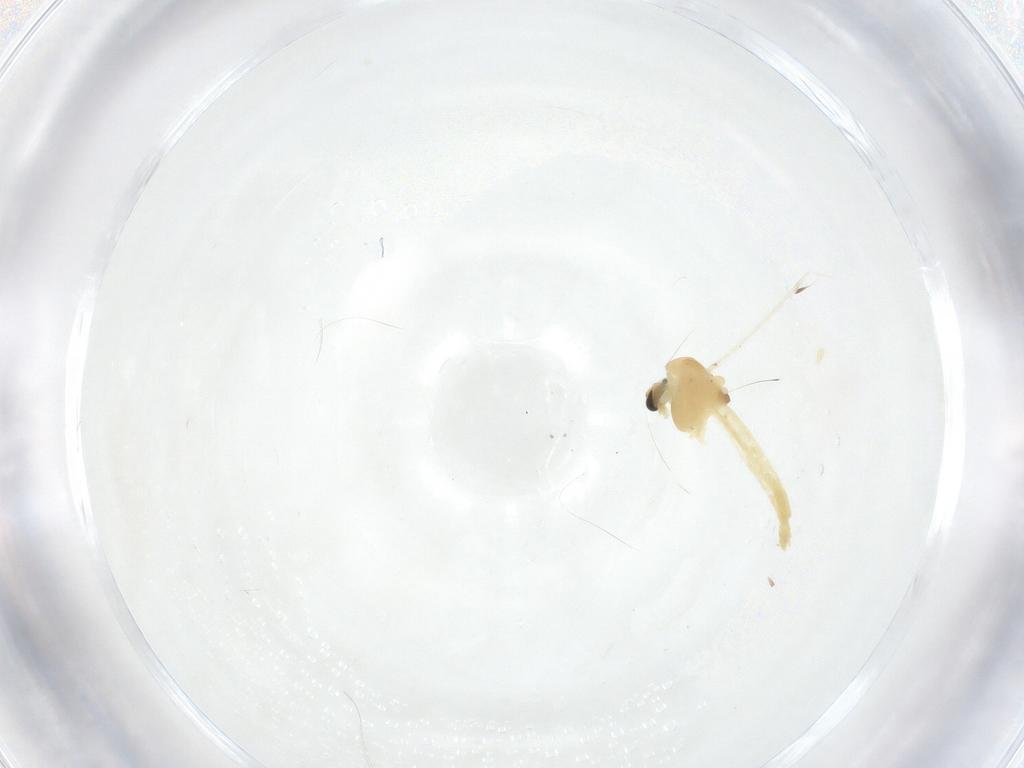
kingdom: Animalia
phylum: Arthropoda
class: Insecta
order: Diptera
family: Chironomidae
